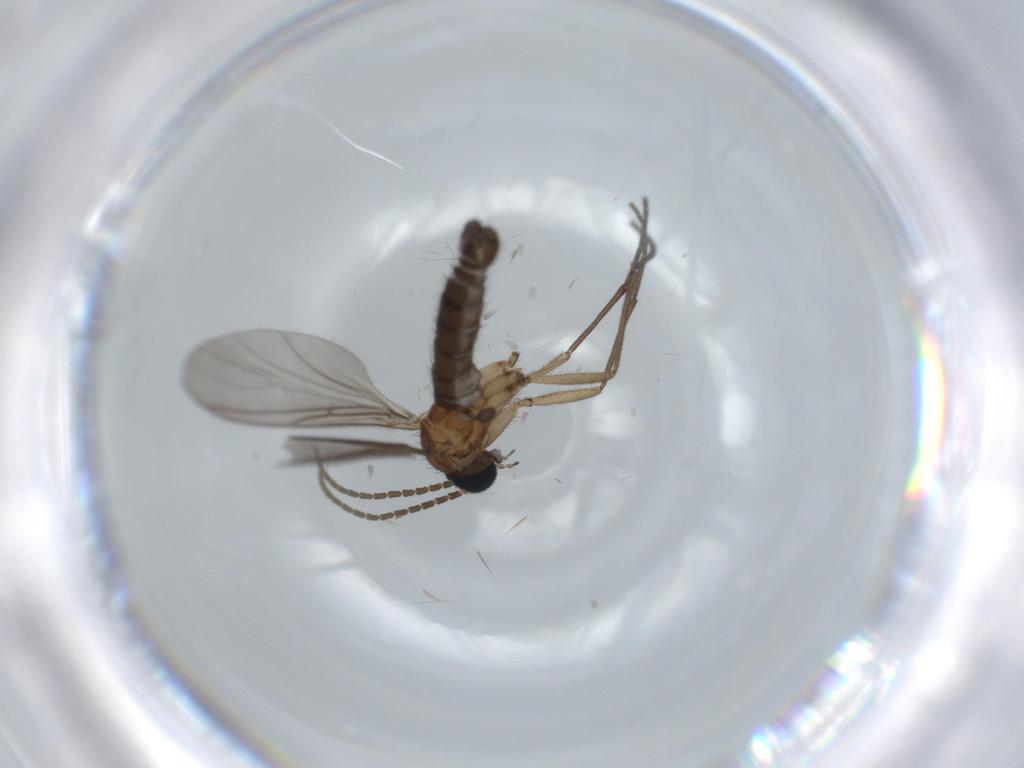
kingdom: Animalia
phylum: Arthropoda
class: Insecta
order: Diptera
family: Sciaridae
